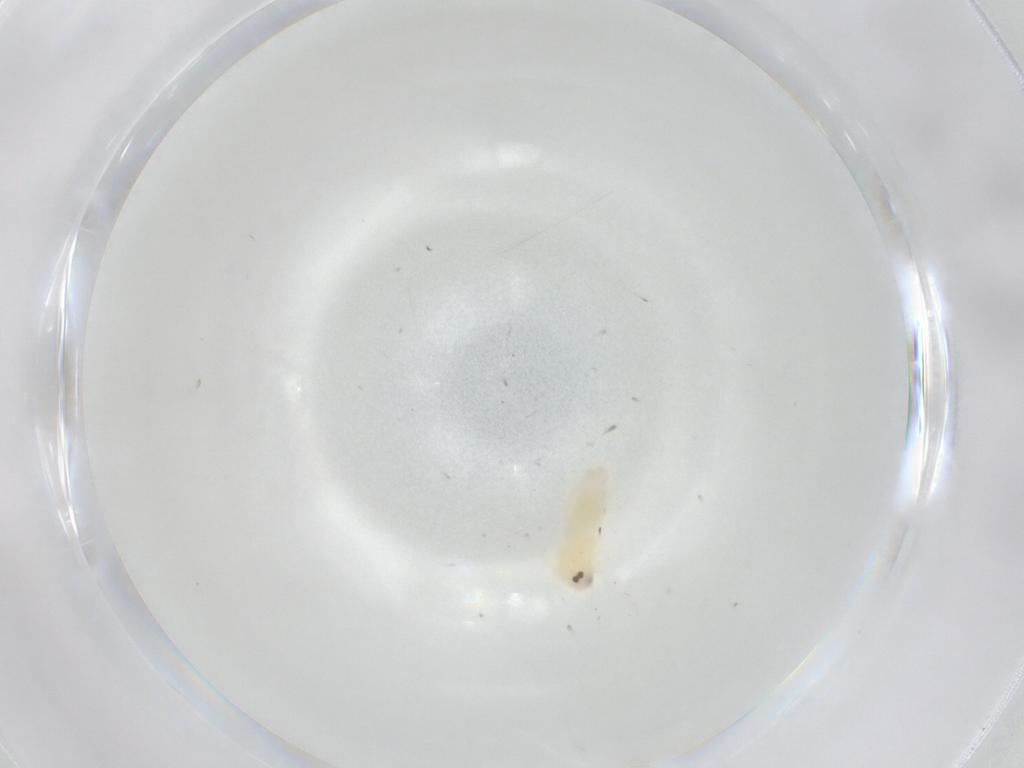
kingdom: Animalia
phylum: Arthropoda
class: Insecta
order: Hemiptera
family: Aleyrodidae
